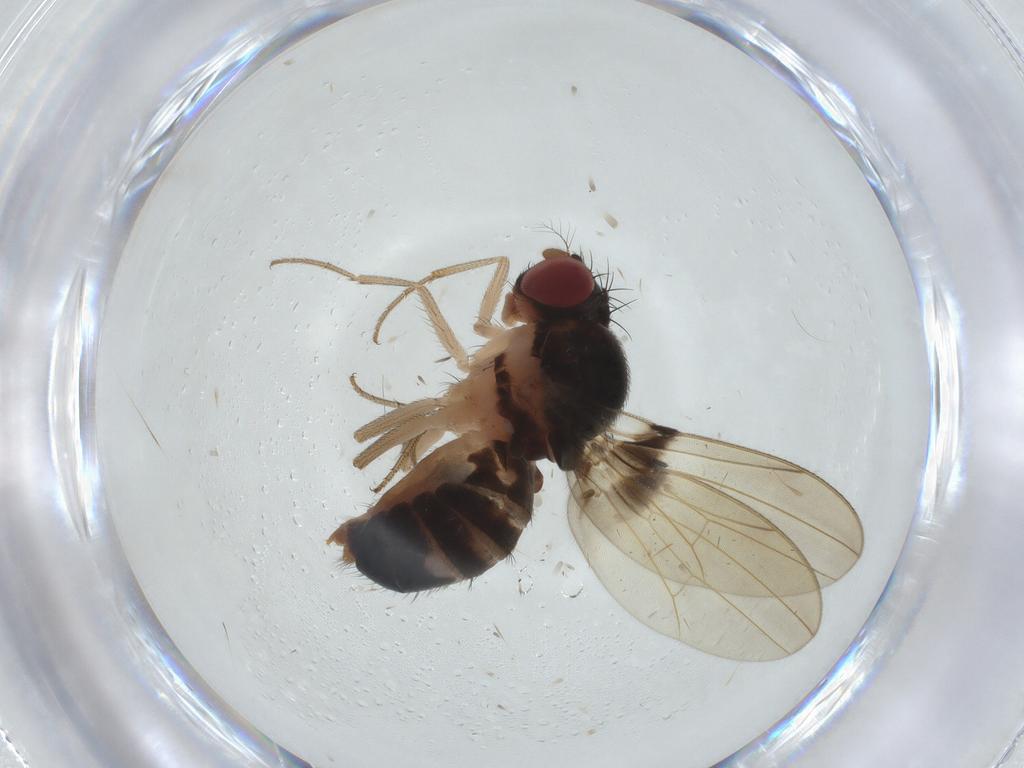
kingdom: Animalia
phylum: Arthropoda
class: Insecta
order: Diptera
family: Drosophilidae
